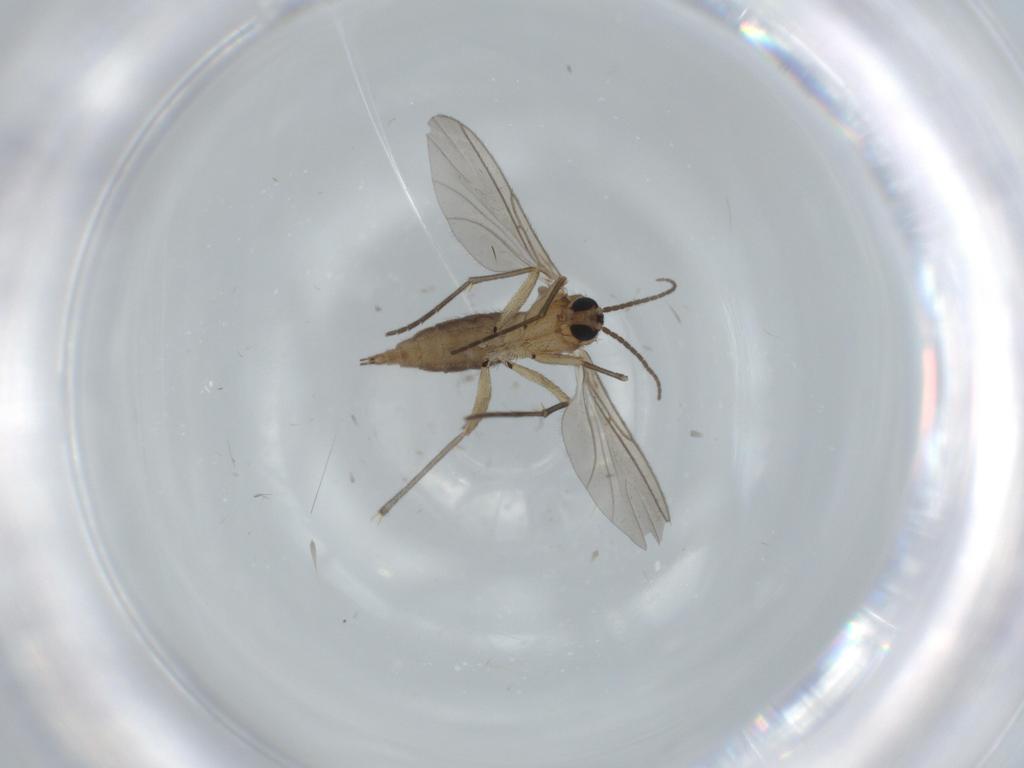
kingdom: Animalia
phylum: Arthropoda
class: Insecta
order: Diptera
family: Sciaridae
